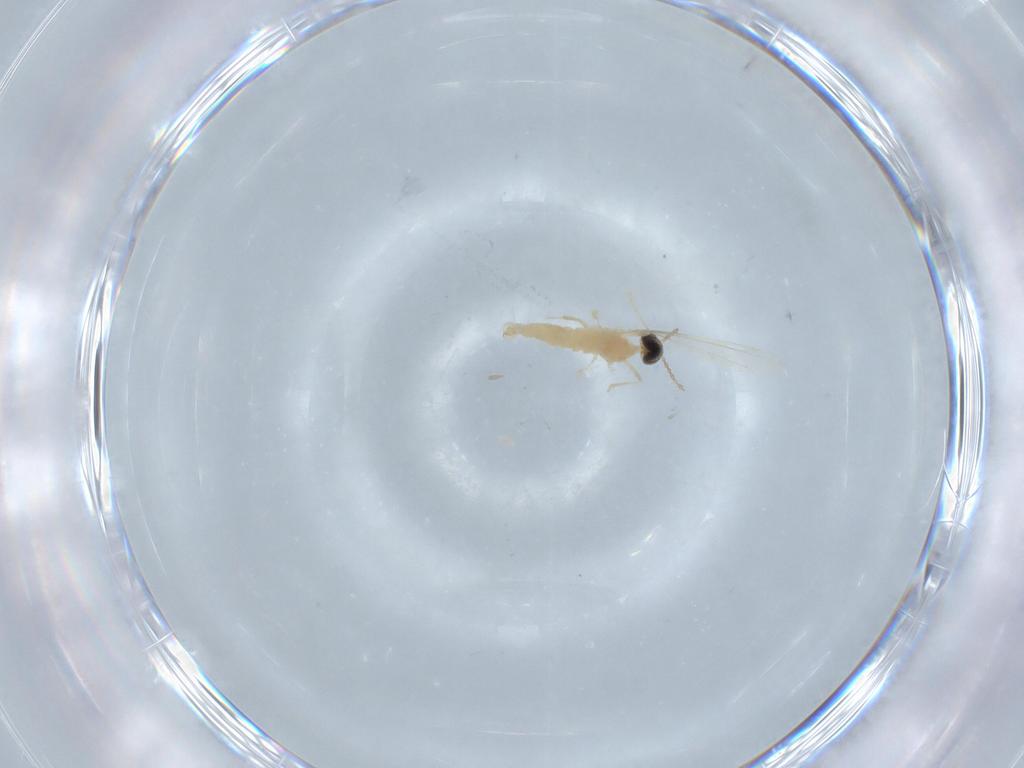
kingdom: Animalia
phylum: Arthropoda
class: Insecta
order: Diptera
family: Cecidomyiidae
